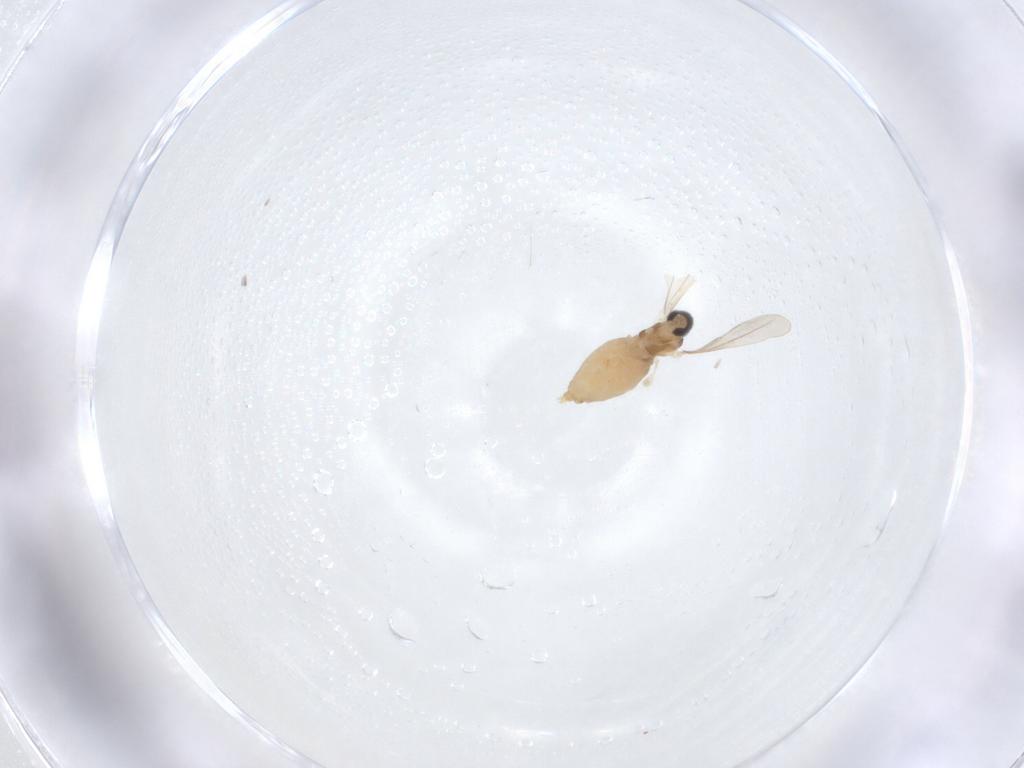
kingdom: Animalia
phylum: Arthropoda
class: Insecta
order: Diptera
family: Cecidomyiidae
